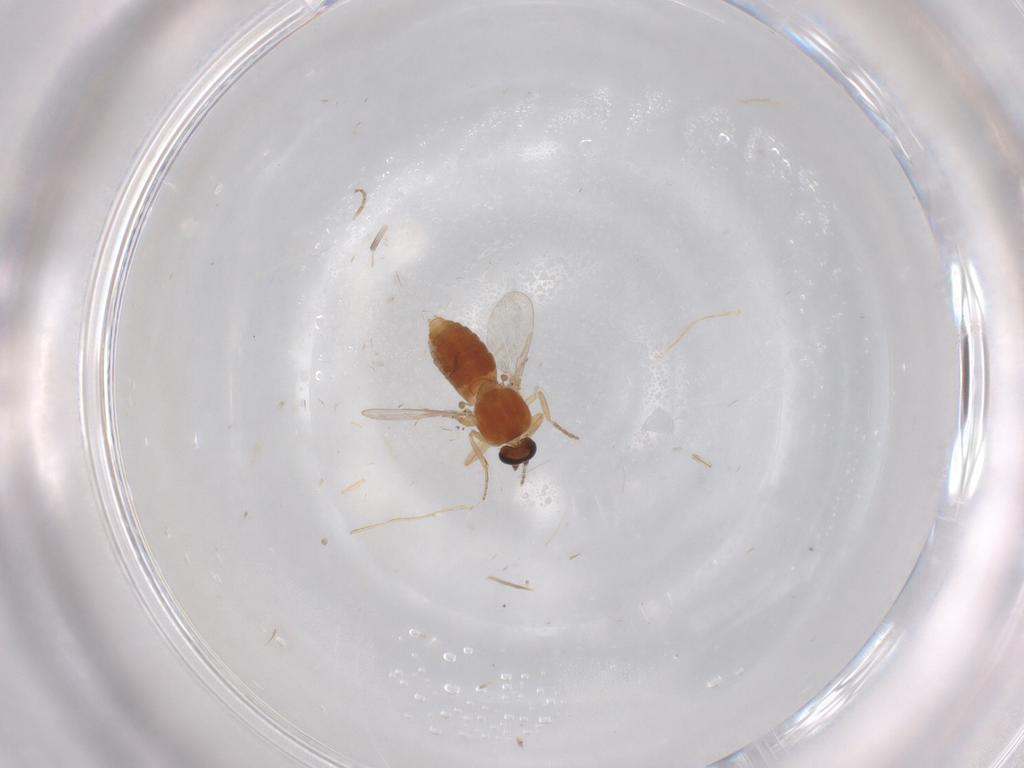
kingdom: Animalia
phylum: Arthropoda
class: Insecta
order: Diptera
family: Ceratopogonidae
